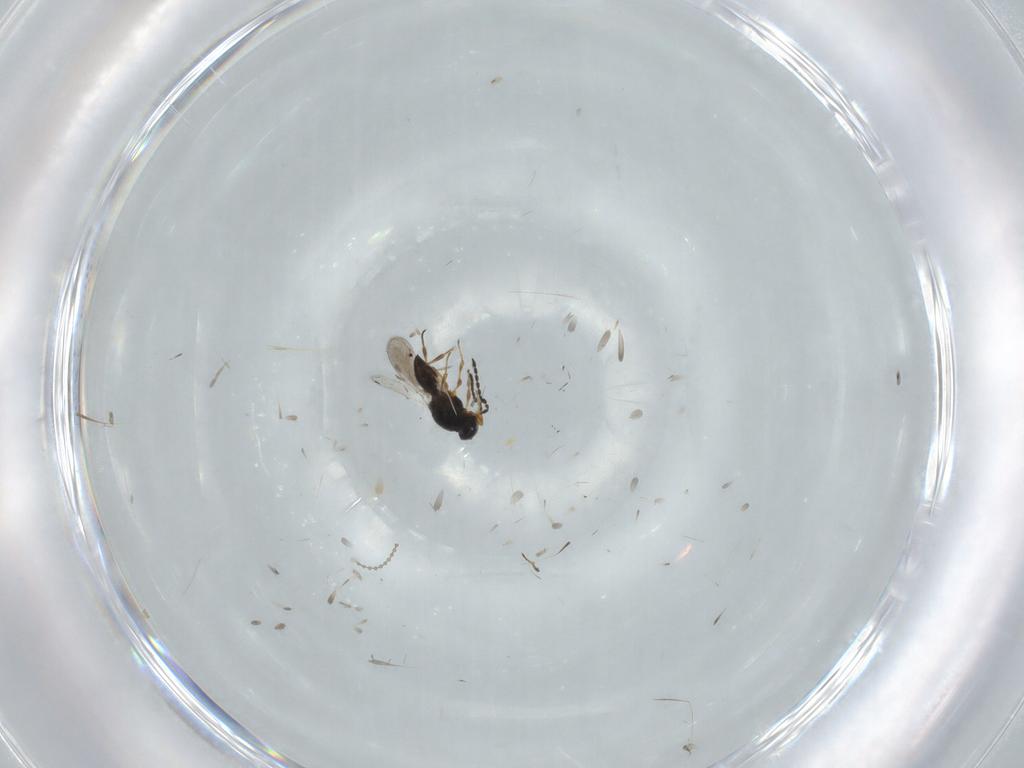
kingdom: Animalia
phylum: Arthropoda
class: Insecta
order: Hymenoptera
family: Platygastridae
